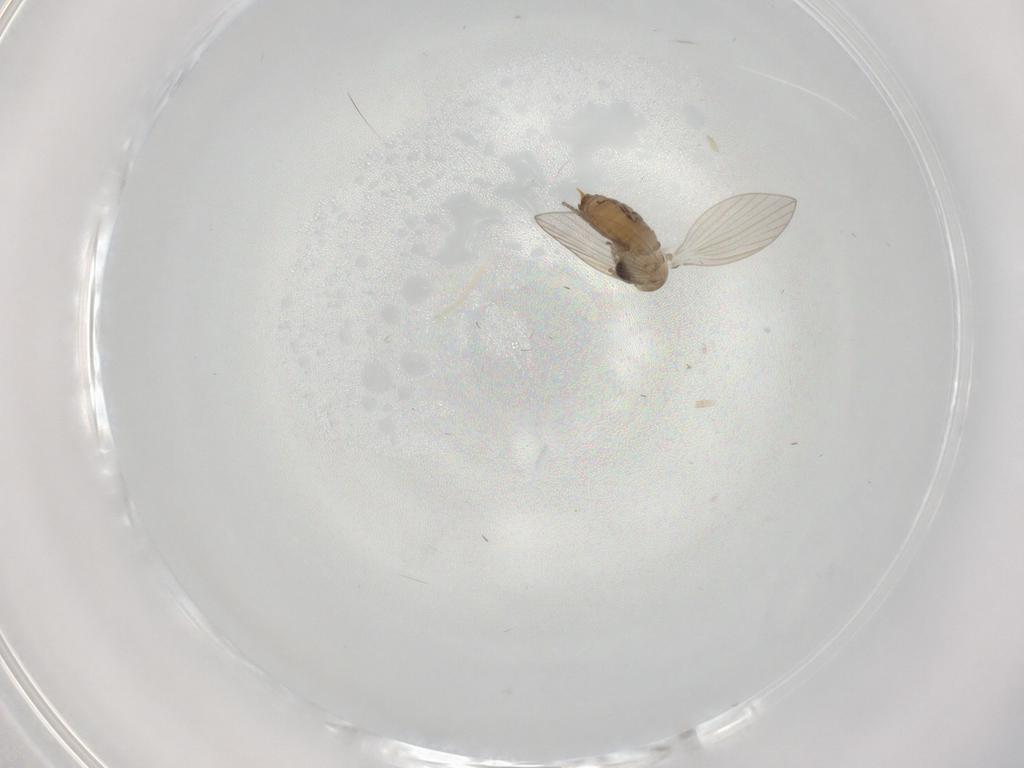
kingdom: Animalia
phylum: Arthropoda
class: Insecta
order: Diptera
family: Psychodidae
